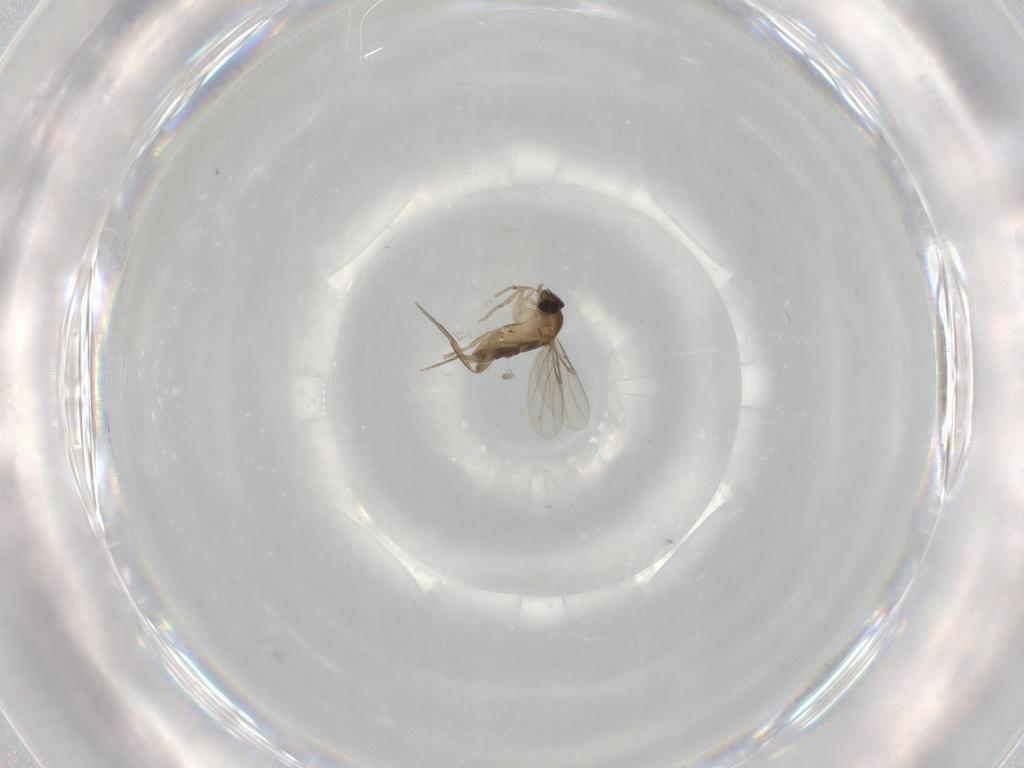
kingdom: Animalia
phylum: Arthropoda
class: Insecta
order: Diptera
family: Phoridae
